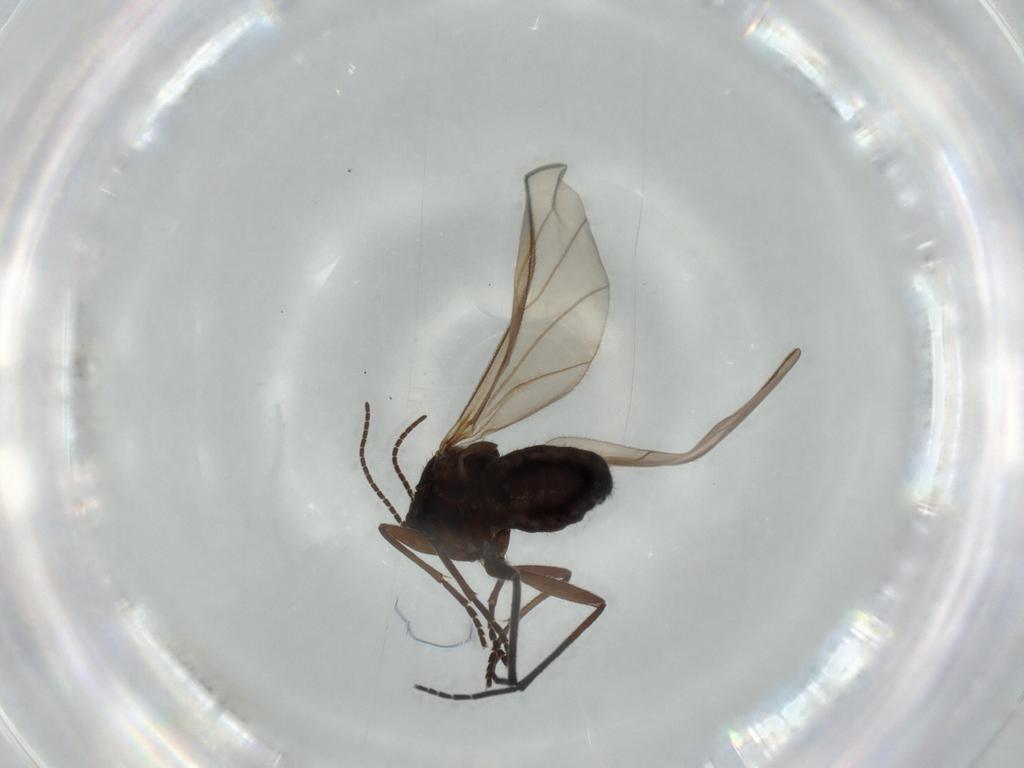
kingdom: Animalia
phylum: Arthropoda
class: Insecta
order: Diptera
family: Sciaridae
